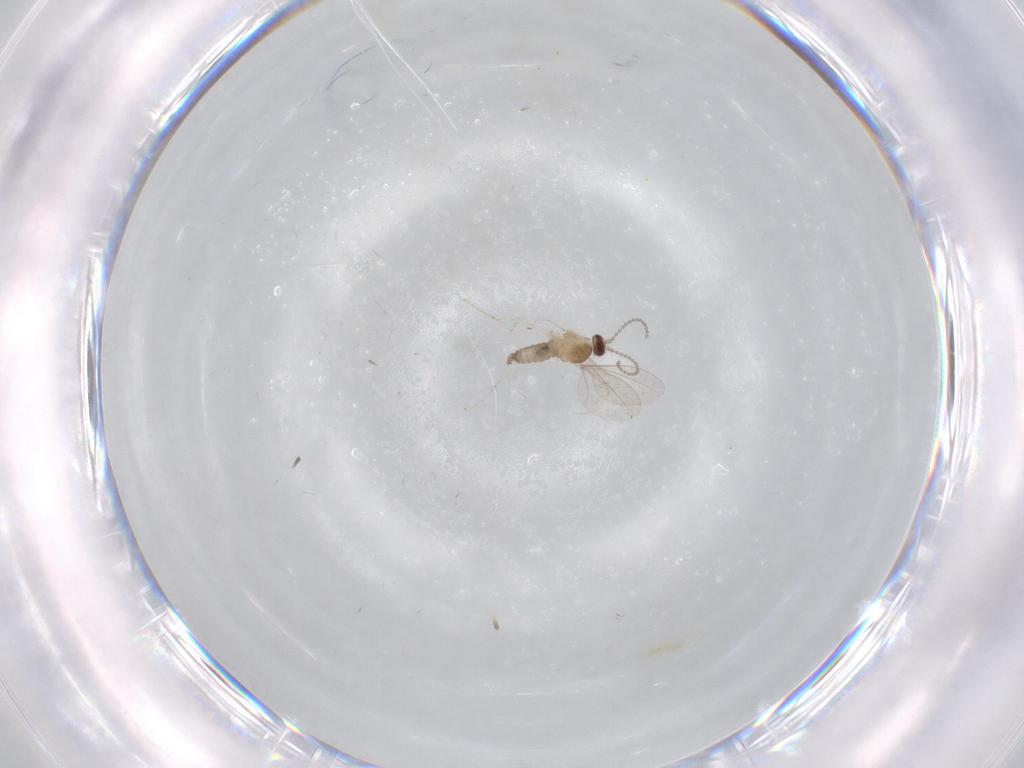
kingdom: Animalia
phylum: Arthropoda
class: Insecta
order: Diptera
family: Cecidomyiidae
